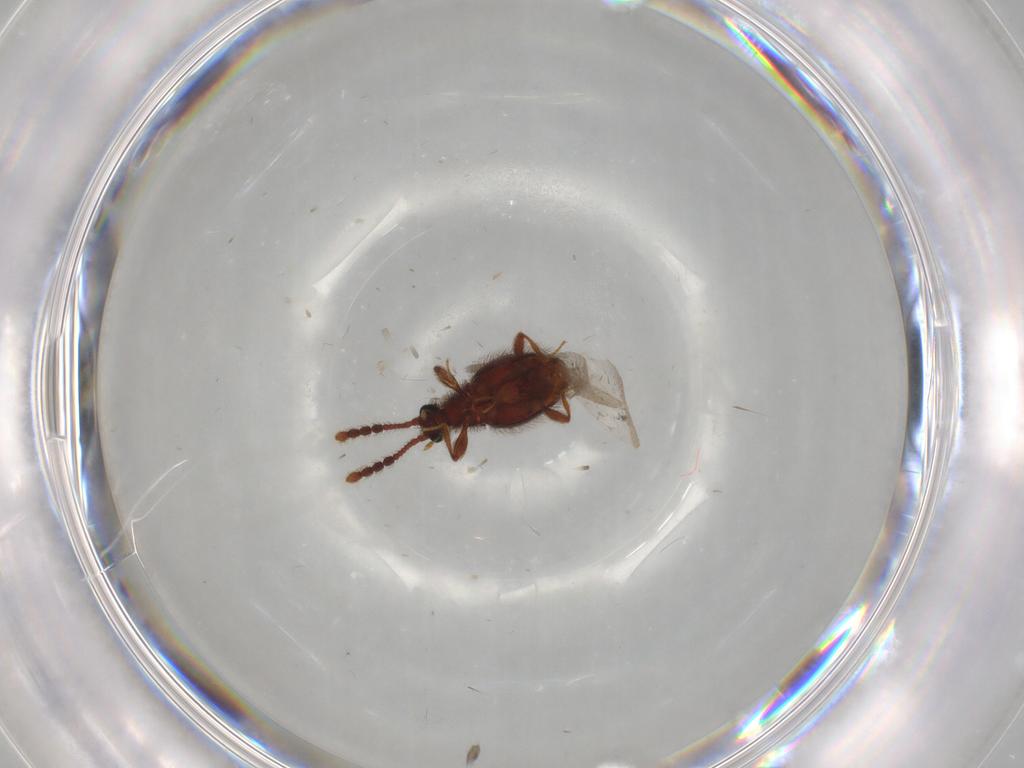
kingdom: Animalia
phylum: Arthropoda
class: Insecta
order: Coleoptera
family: Staphylinidae
